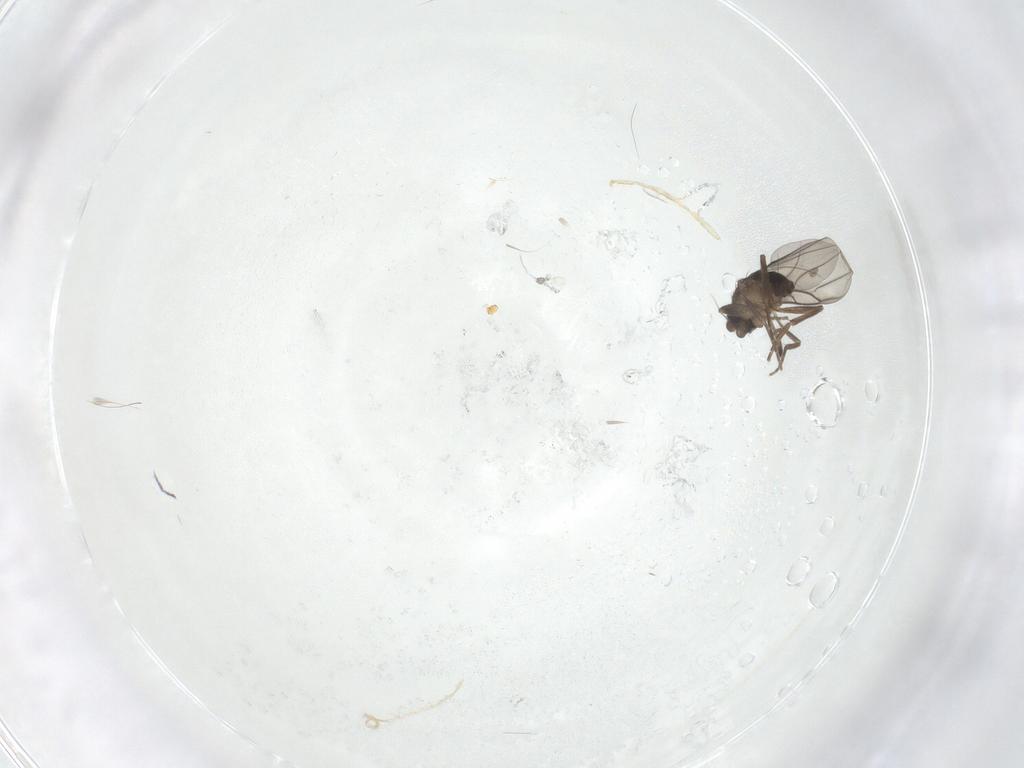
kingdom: Animalia
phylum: Arthropoda
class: Insecta
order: Diptera
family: Phoridae
